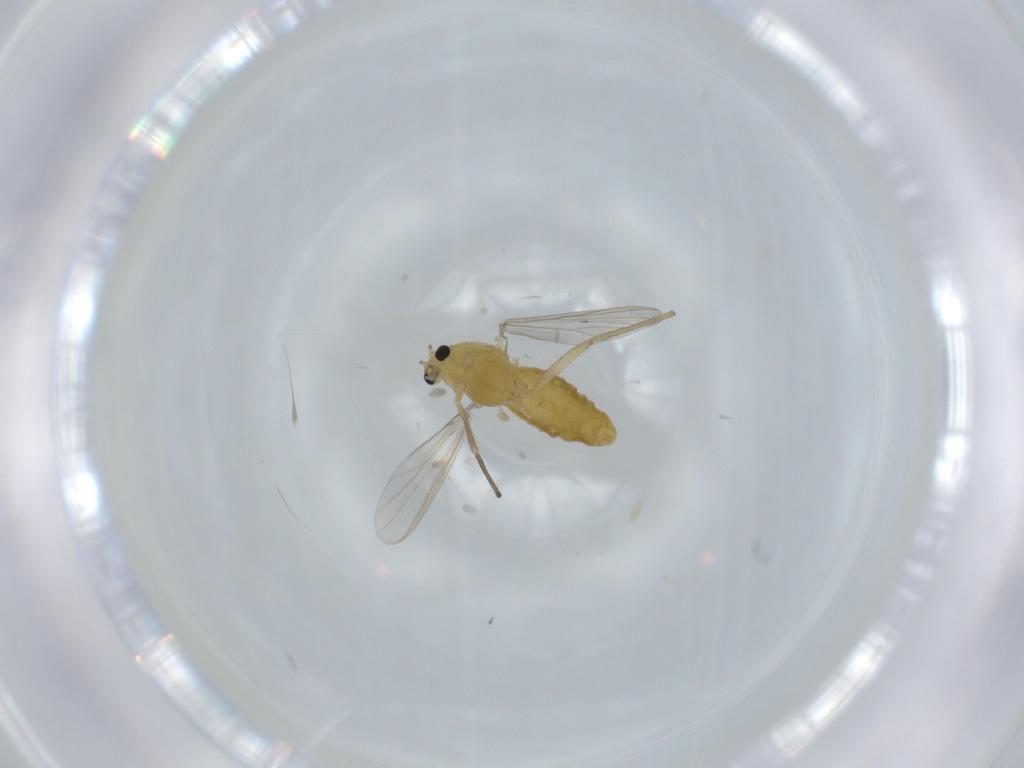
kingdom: Animalia
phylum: Arthropoda
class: Insecta
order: Diptera
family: Chironomidae
